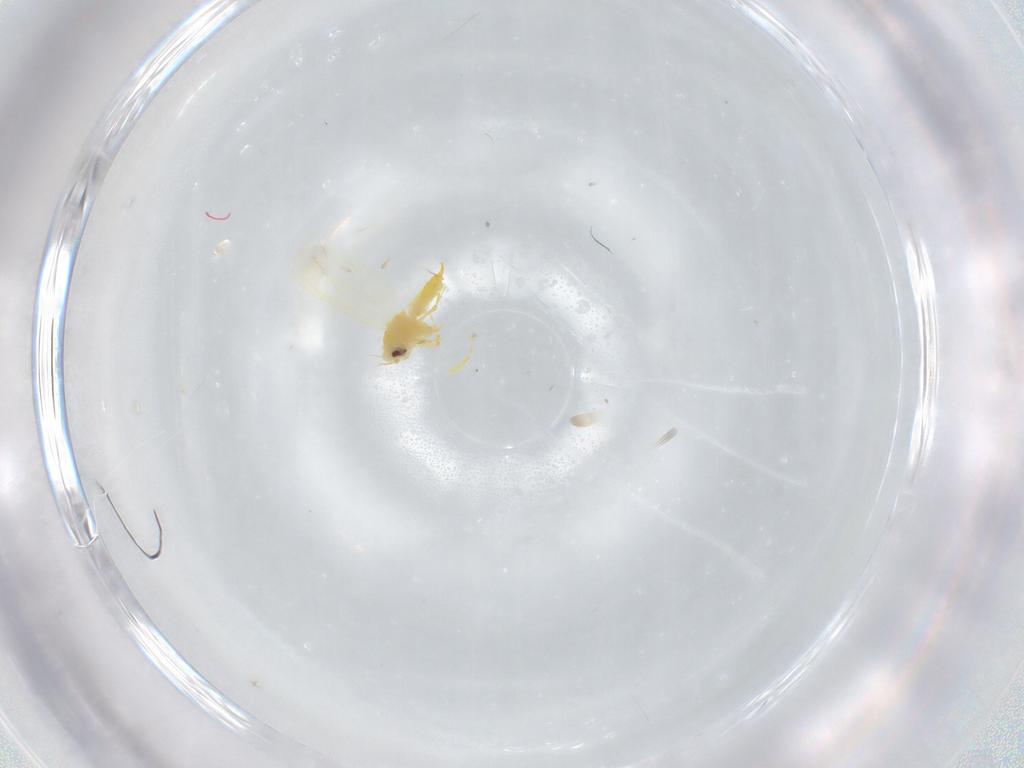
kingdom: Animalia
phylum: Arthropoda
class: Insecta
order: Hemiptera
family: Aleyrodidae
